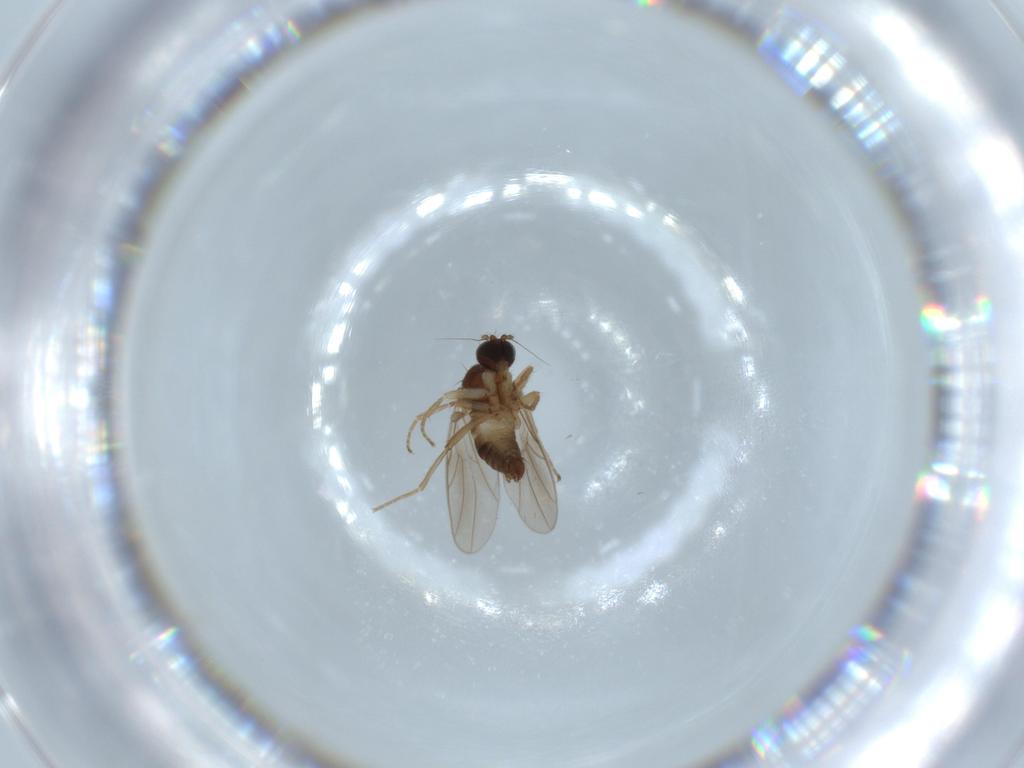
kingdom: Animalia
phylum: Arthropoda
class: Insecta
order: Diptera
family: Hybotidae
